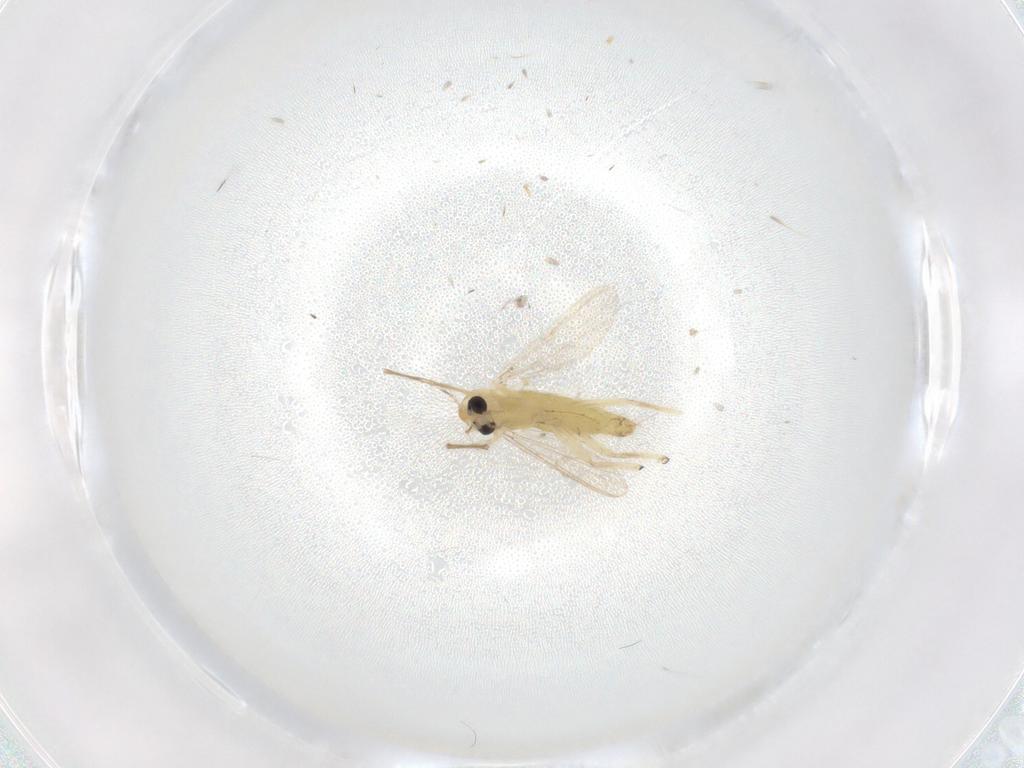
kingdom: Animalia
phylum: Arthropoda
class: Insecta
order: Diptera
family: Chironomidae
